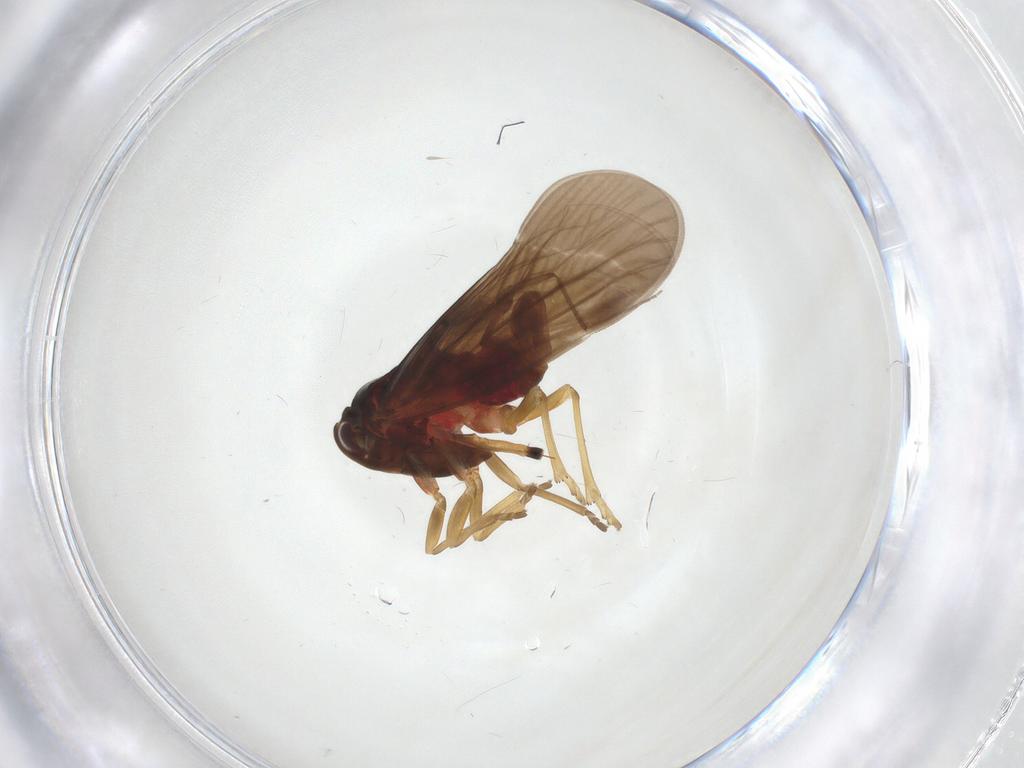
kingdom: Animalia
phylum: Arthropoda
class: Insecta
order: Hemiptera
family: Derbidae
